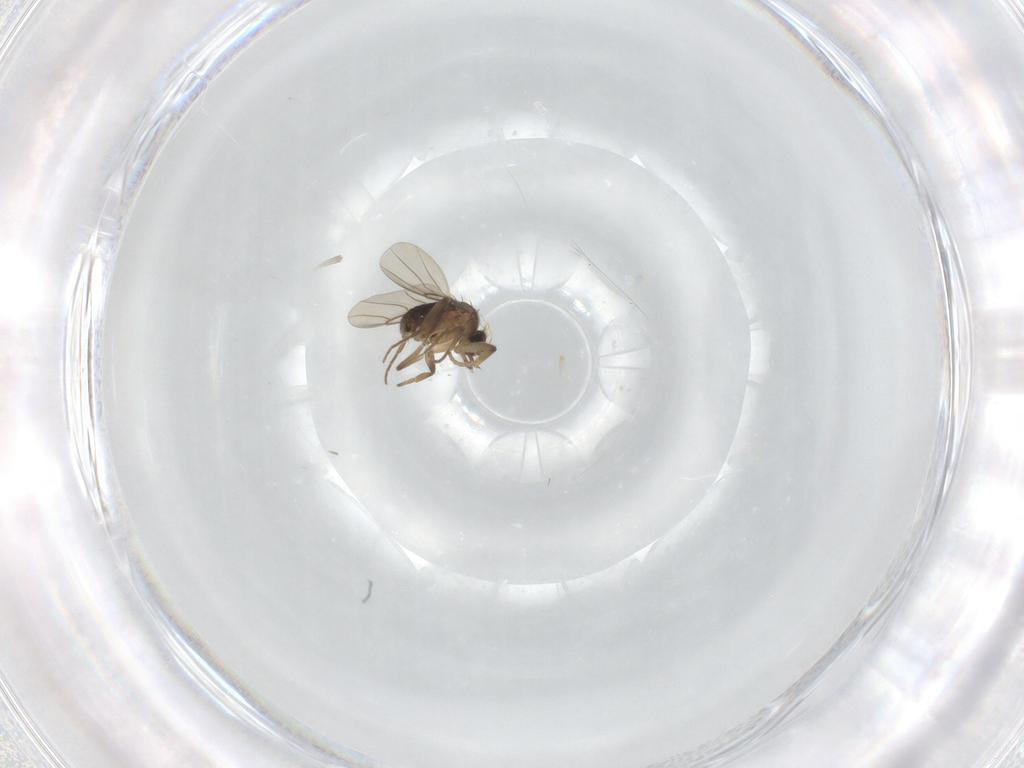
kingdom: Animalia
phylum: Arthropoda
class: Insecta
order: Diptera
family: Phoridae
